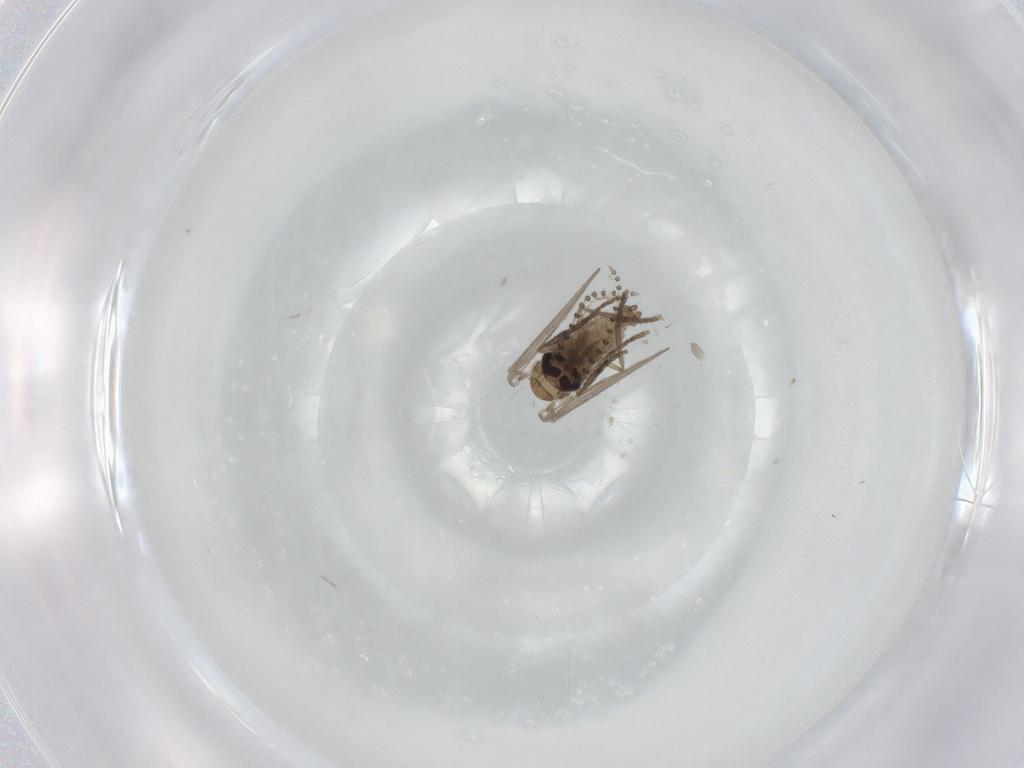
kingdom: Animalia
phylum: Arthropoda
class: Insecta
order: Diptera
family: Psychodidae
